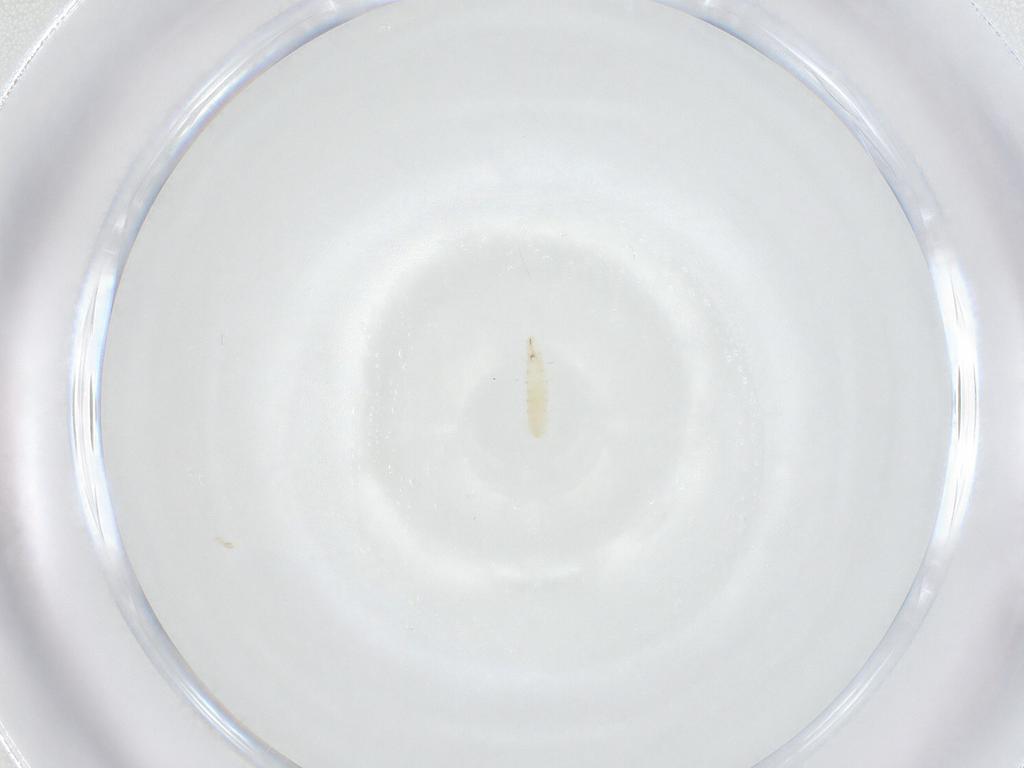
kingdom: Animalia
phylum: Arthropoda
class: Insecta
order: Diptera
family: Sarcophagidae
